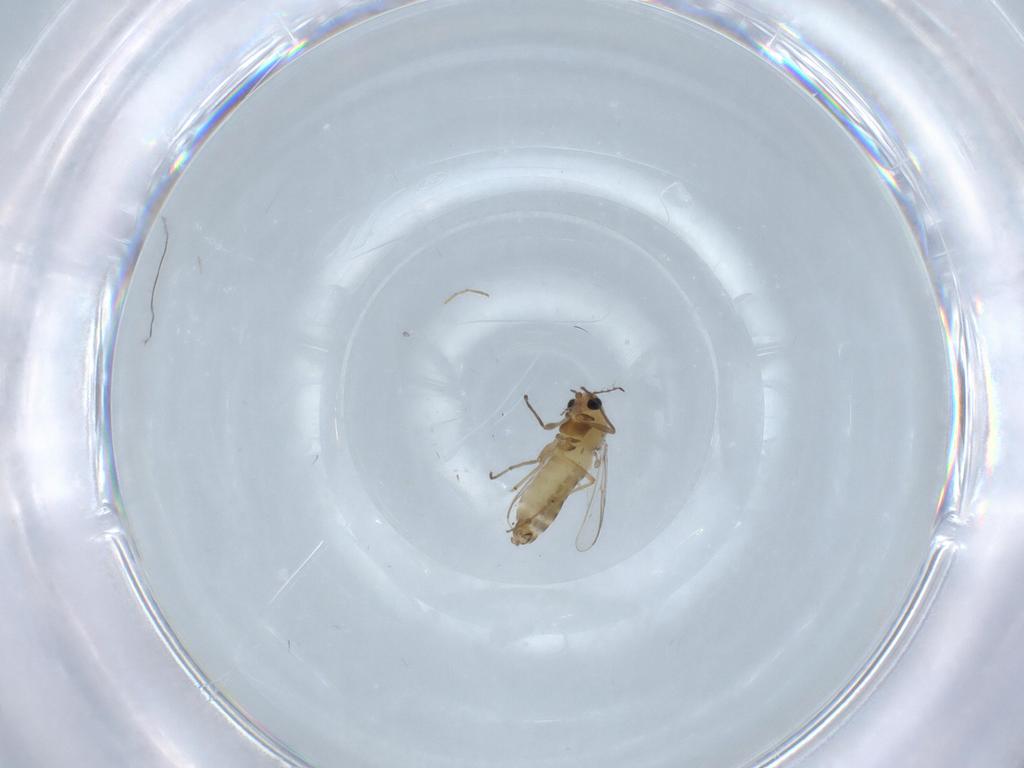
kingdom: Animalia
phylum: Arthropoda
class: Insecta
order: Diptera
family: Chironomidae
